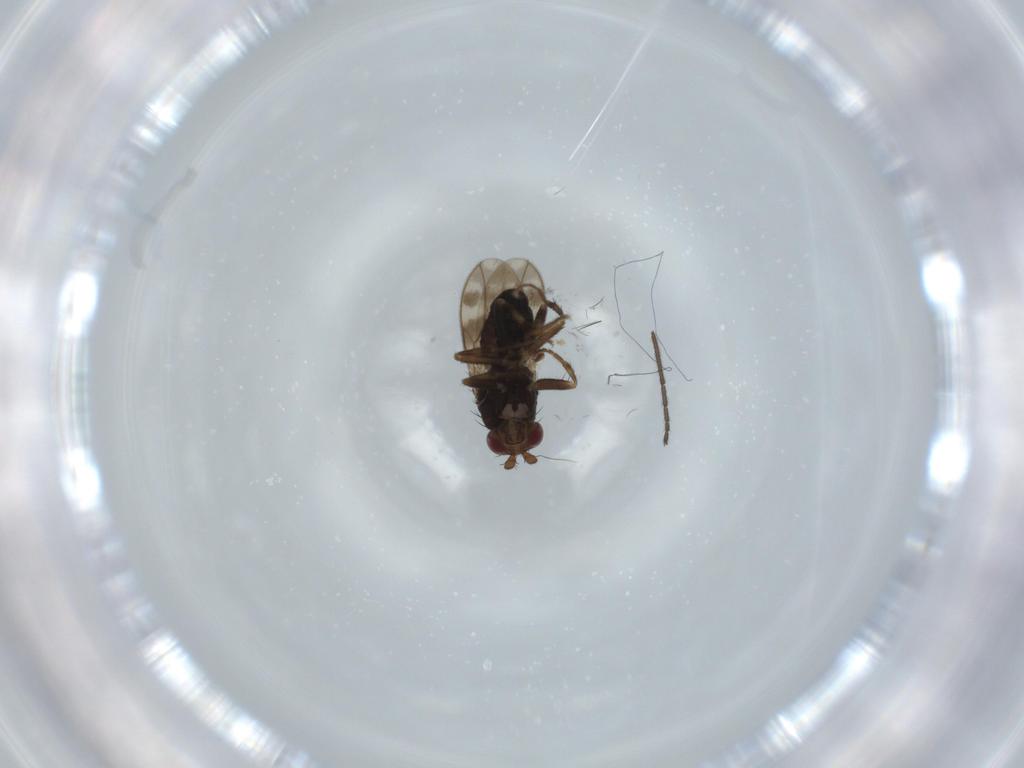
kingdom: Animalia
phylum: Arthropoda
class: Insecta
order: Diptera
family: Sphaeroceridae
